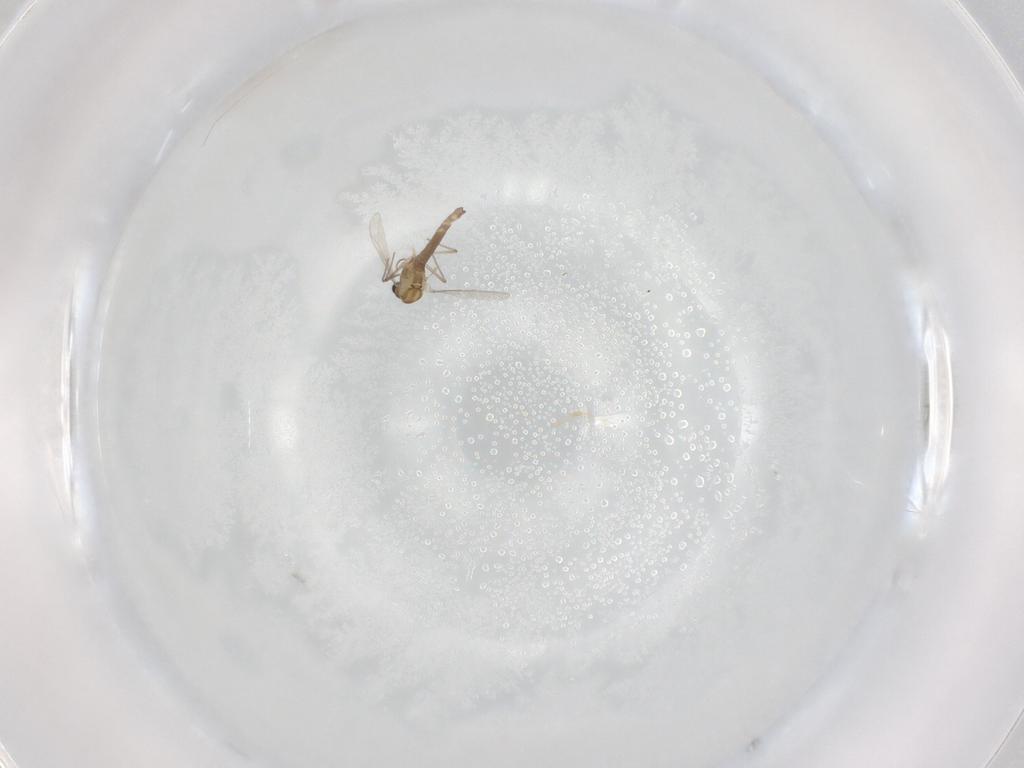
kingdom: Animalia
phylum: Arthropoda
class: Insecta
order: Diptera
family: Chironomidae
